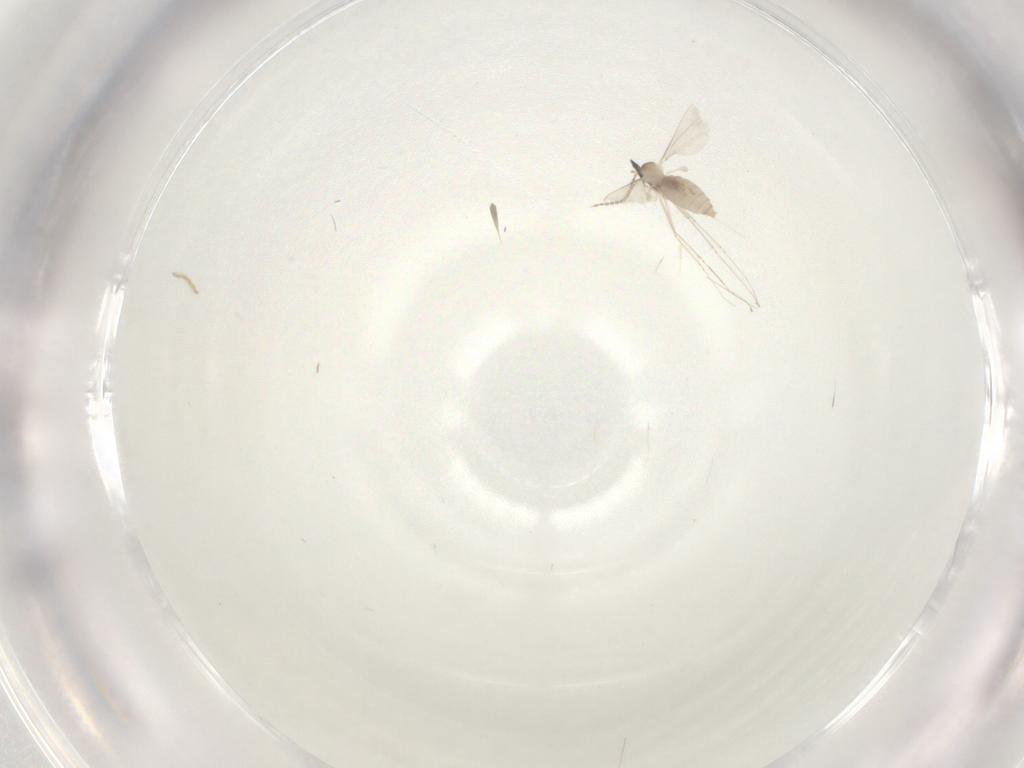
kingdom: Animalia
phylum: Arthropoda
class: Insecta
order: Diptera
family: Cecidomyiidae
